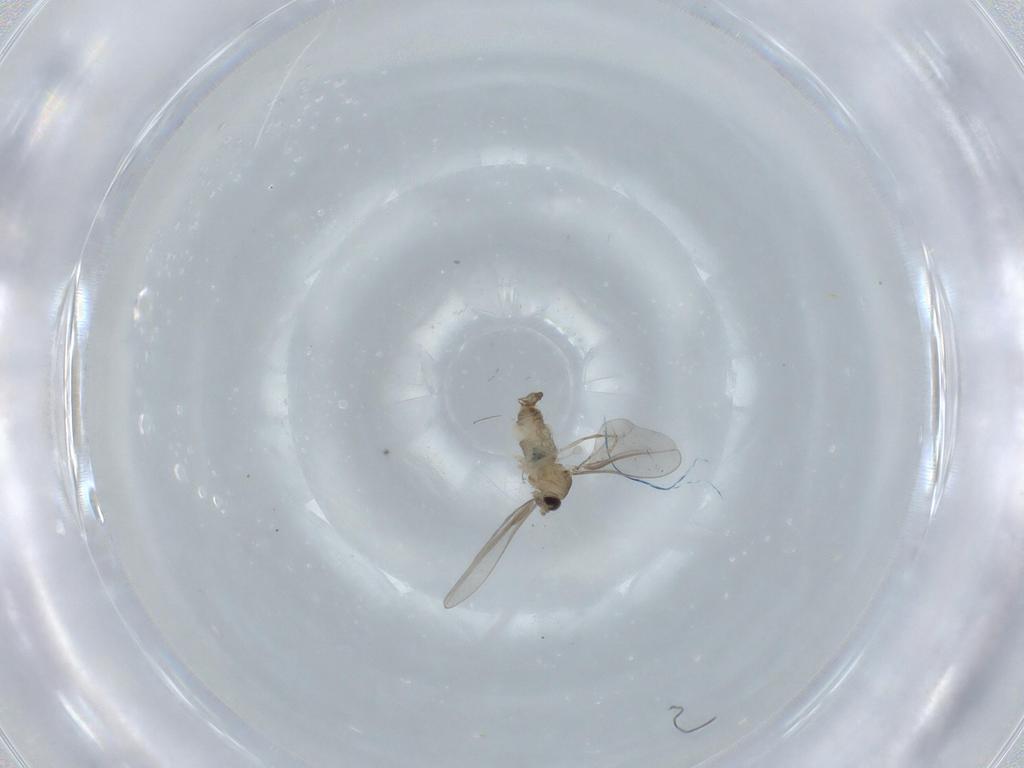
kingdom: Animalia
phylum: Arthropoda
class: Insecta
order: Diptera
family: Cecidomyiidae
